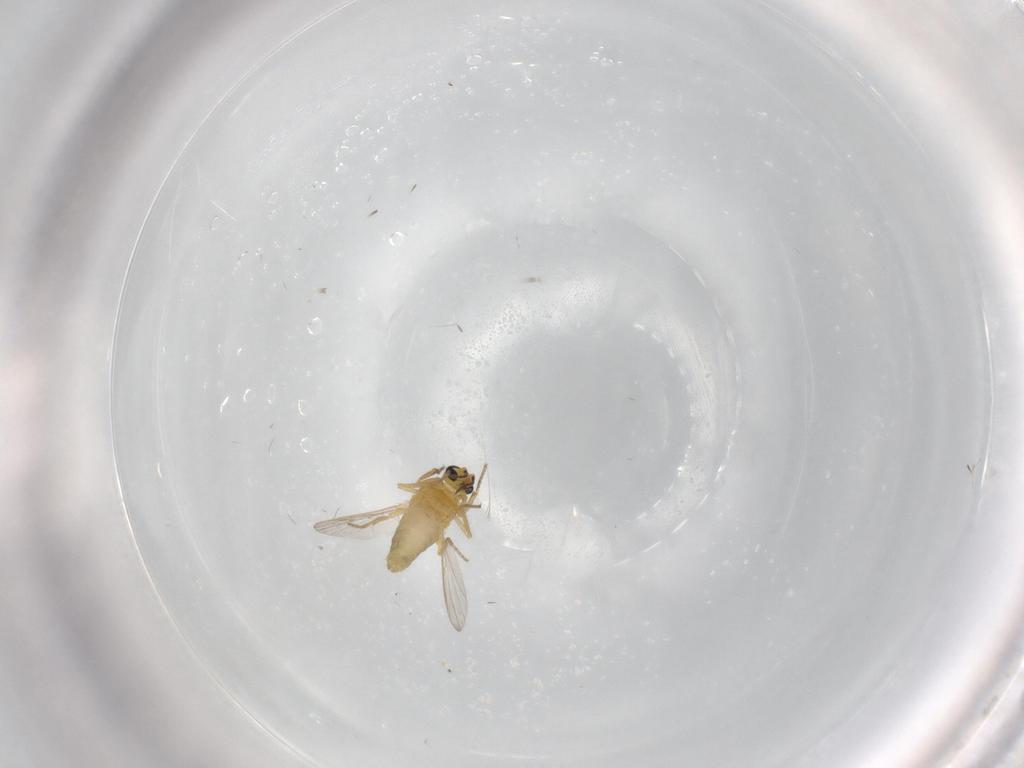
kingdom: Animalia
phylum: Arthropoda
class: Insecta
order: Diptera
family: Ceratopogonidae
